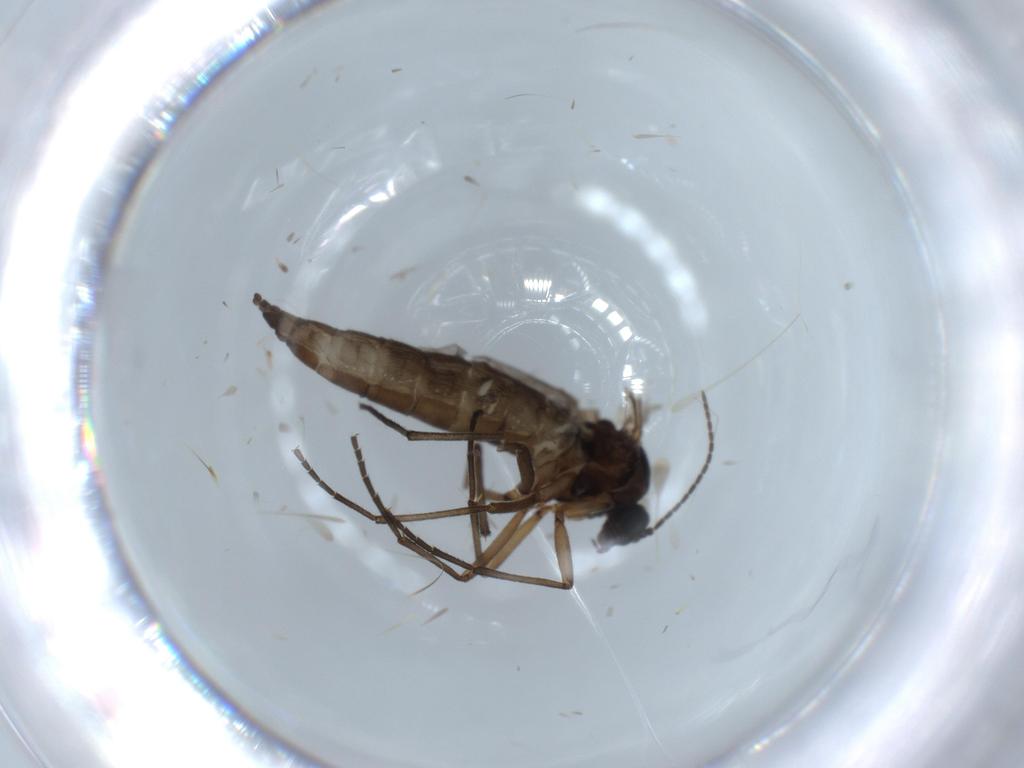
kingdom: Animalia
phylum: Arthropoda
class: Insecta
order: Diptera
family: Sciaridae
